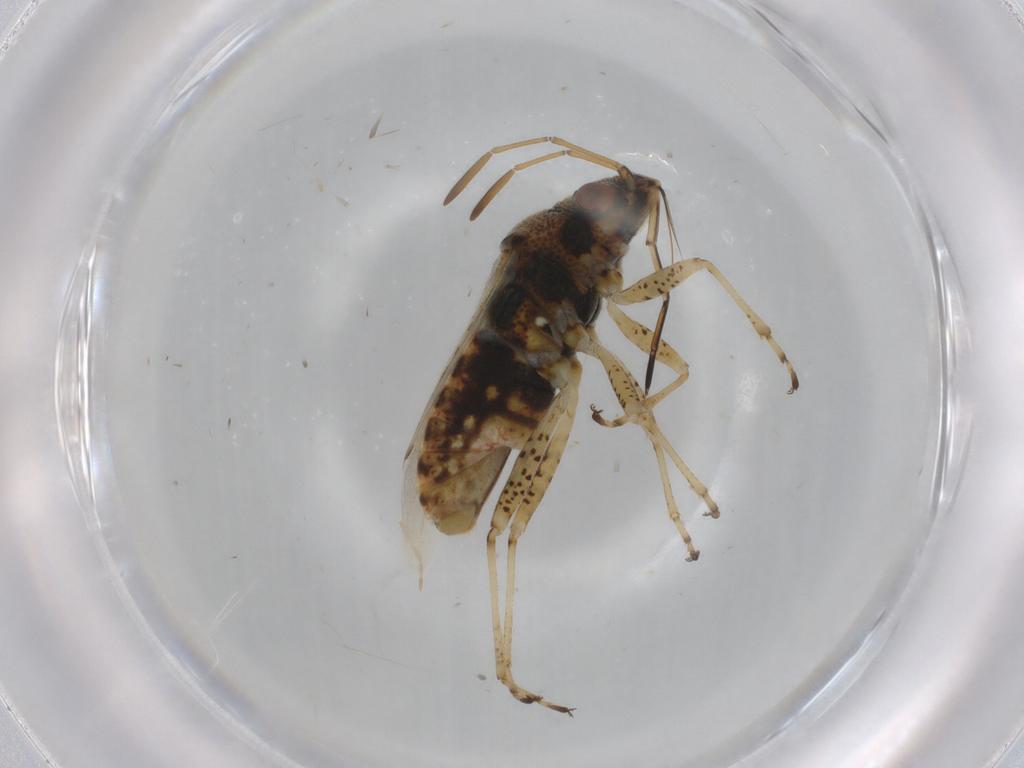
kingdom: Animalia
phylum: Arthropoda
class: Insecta
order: Hemiptera
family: Lygaeidae
